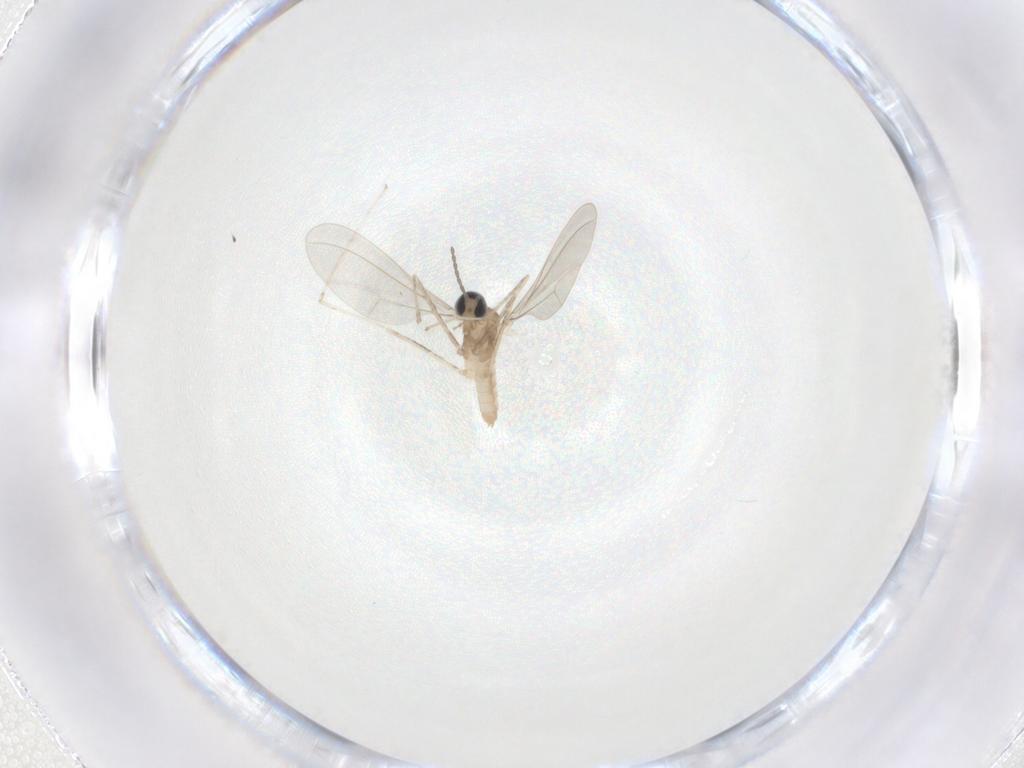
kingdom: Animalia
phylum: Arthropoda
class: Insecta
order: Diptera
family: Cecidomyiidae
